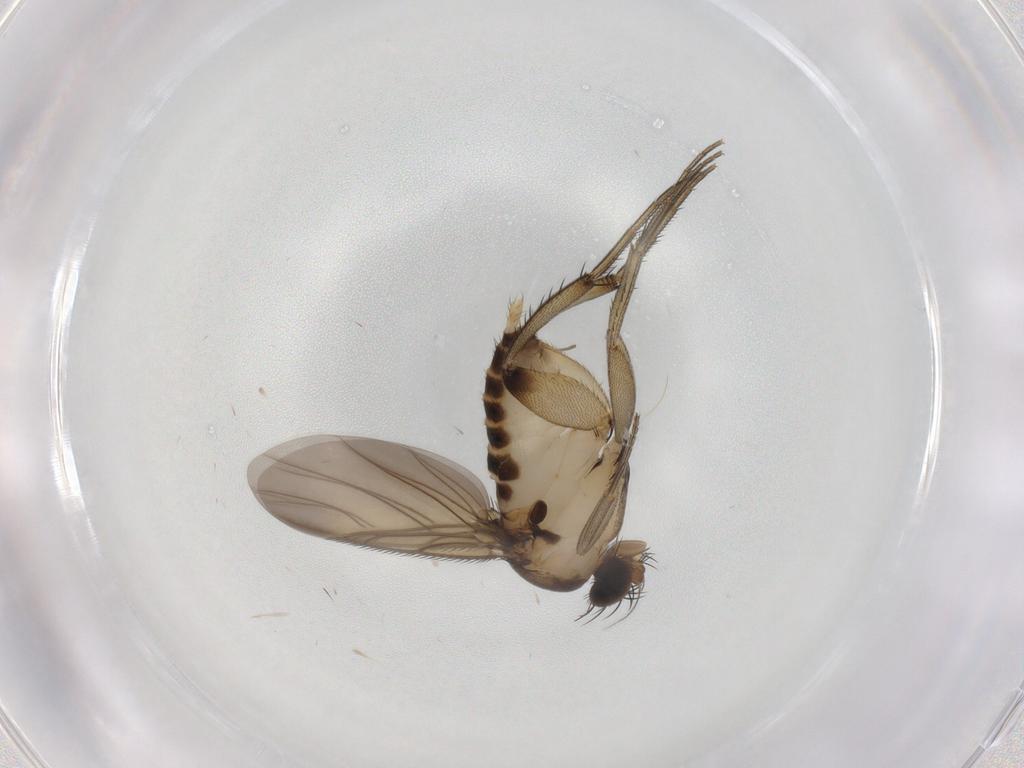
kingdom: Animalia
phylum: Arthropoda
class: Insecta
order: Diptera
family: Phoridae
